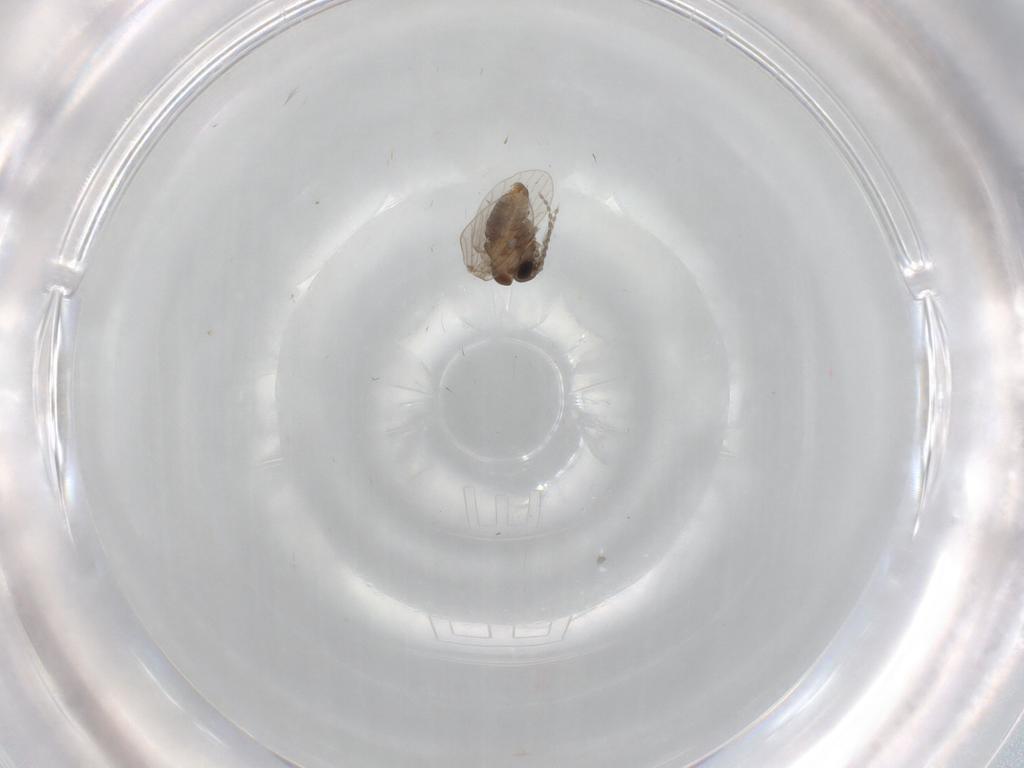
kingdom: Animalia
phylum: Arthropoda
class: Insecta
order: Diptera
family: Cecidomyiidae
